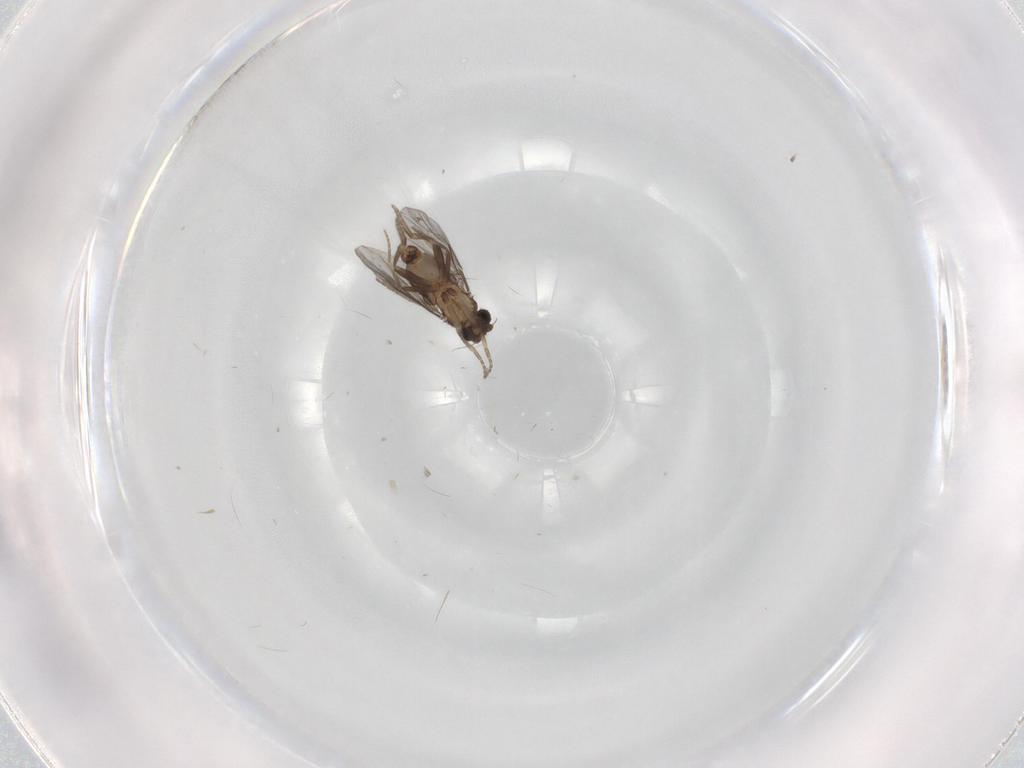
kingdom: Animalia
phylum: Arthropoda
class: Insecta
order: Diptera
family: Chironomidae
